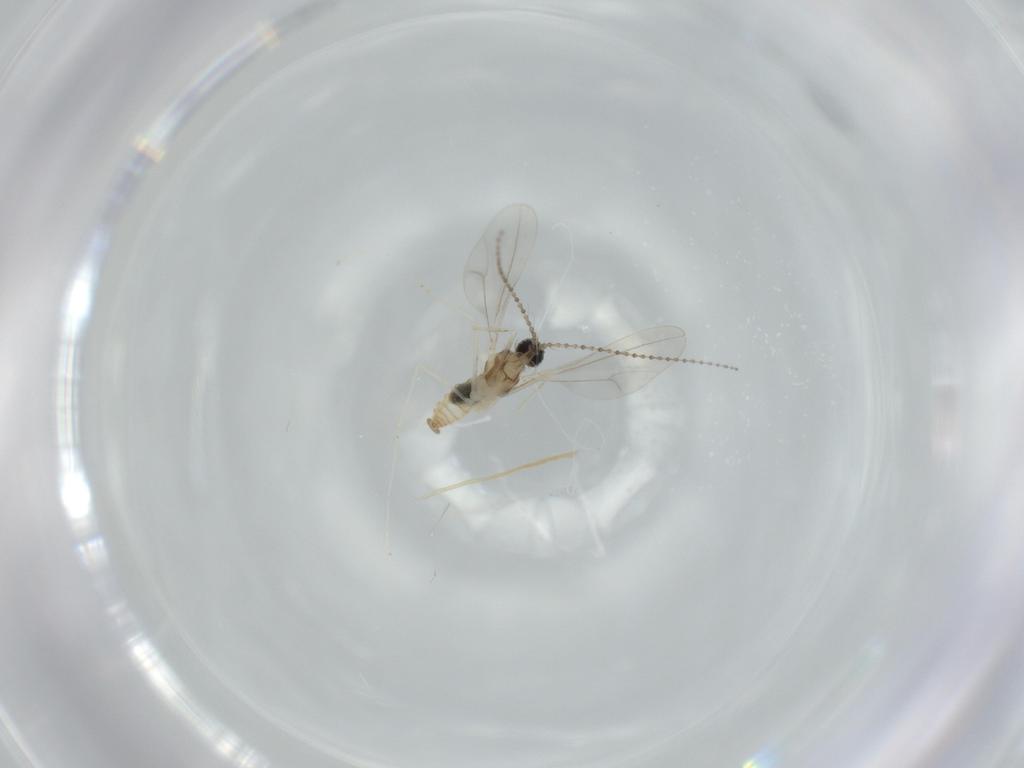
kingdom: Animalia
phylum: Arthropoda
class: Insecta
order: Diptera
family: Cecidomyiidae
